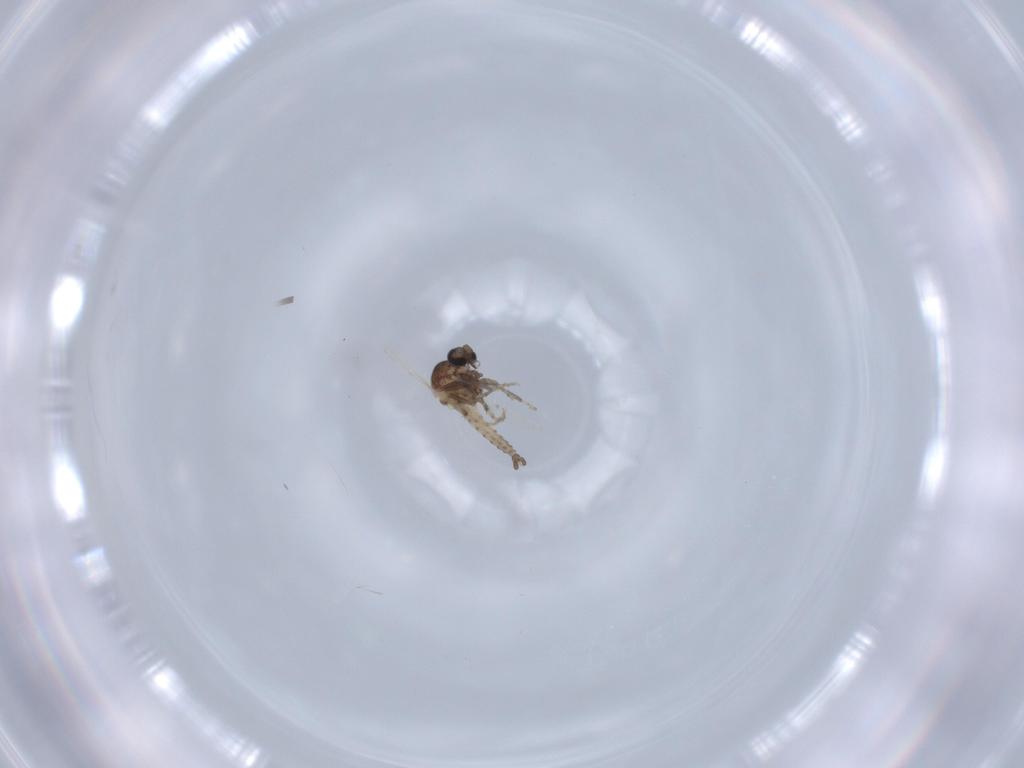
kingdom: Animalia
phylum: Arthropoda
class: Insecta
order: Diptera
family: Ceratopogonidae
